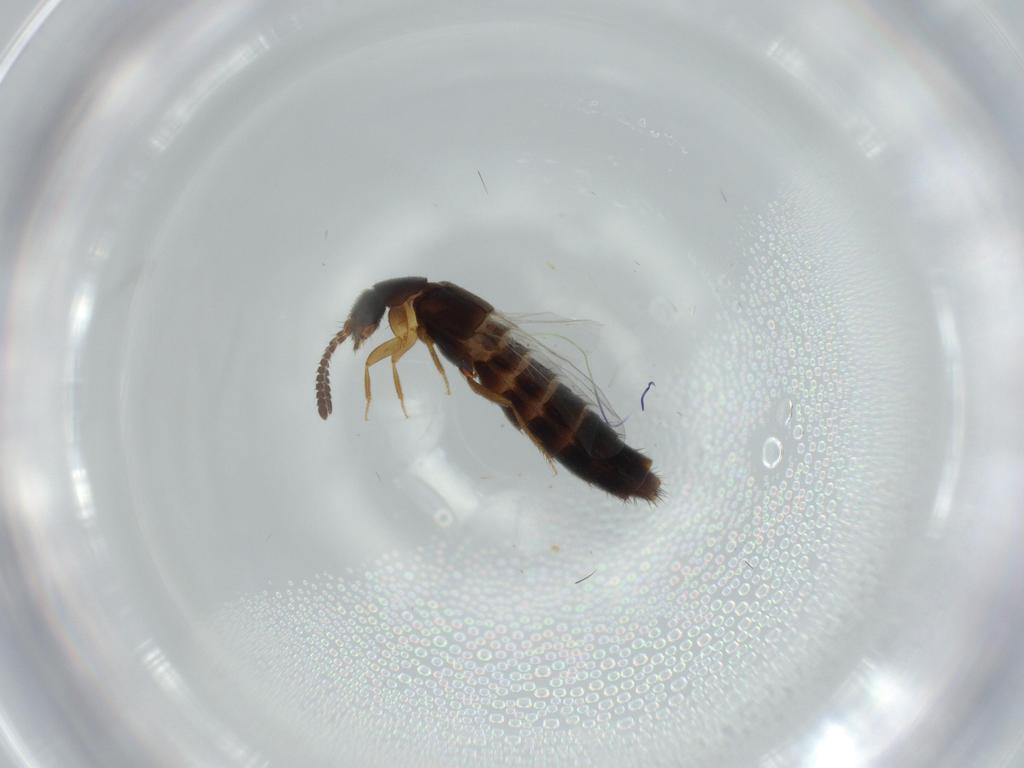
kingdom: Animalia
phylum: Arthropoda
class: Insecta
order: Coleoptera
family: Staphylinidae
